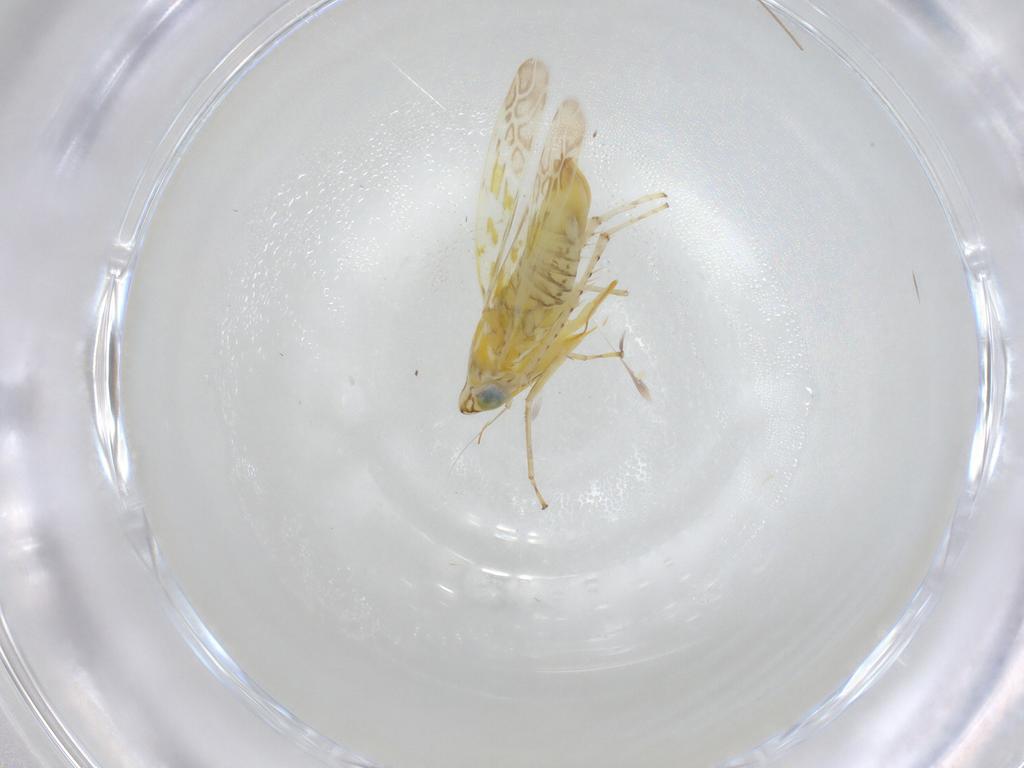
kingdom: Animalia
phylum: Arthropoda
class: Insecta
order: Hemiptera
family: Cicadellidae
